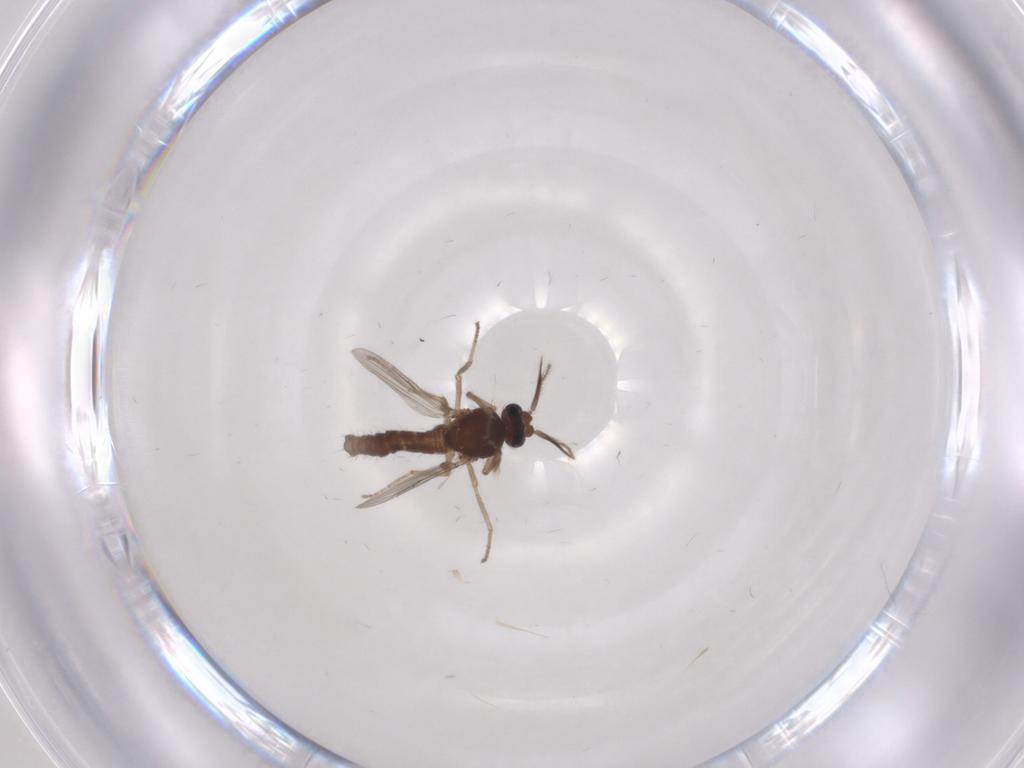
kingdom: Animalia
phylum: Arthropoda
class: Insecta
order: Diptera
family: Ceratopogonidae
